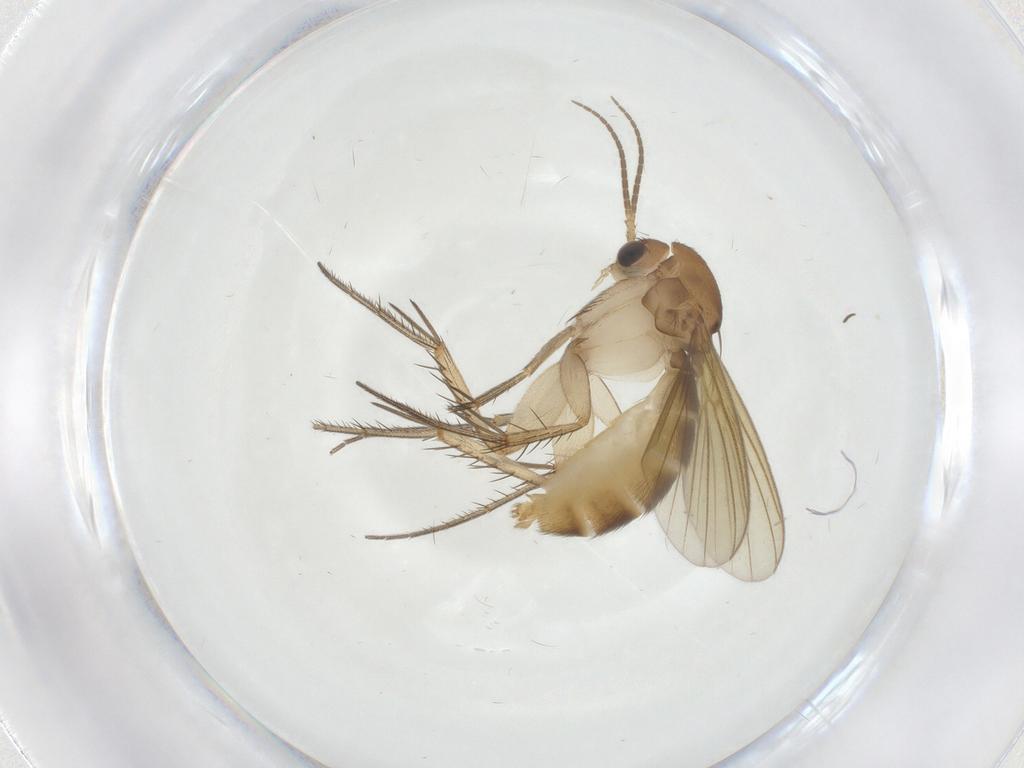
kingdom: Animalia
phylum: Arthropoda
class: Insecta
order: Diptera
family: Mycetophilidae
